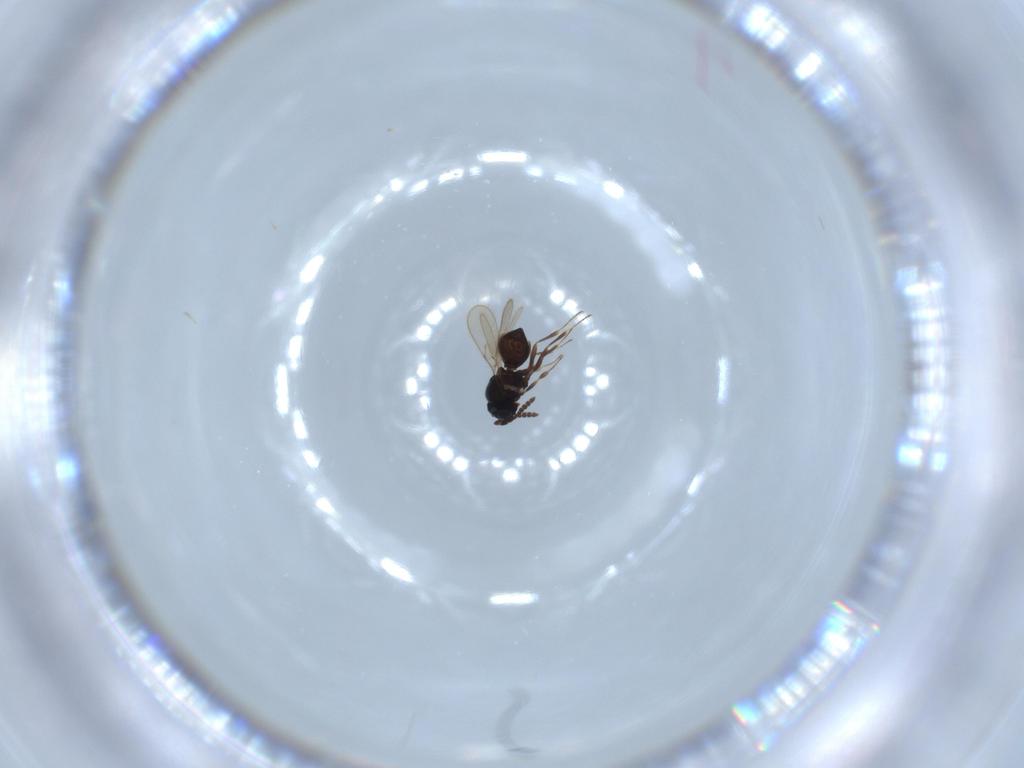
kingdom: Animalia
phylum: Arthropoda
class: Insecta
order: Hymenoptera
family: Scelionidae
